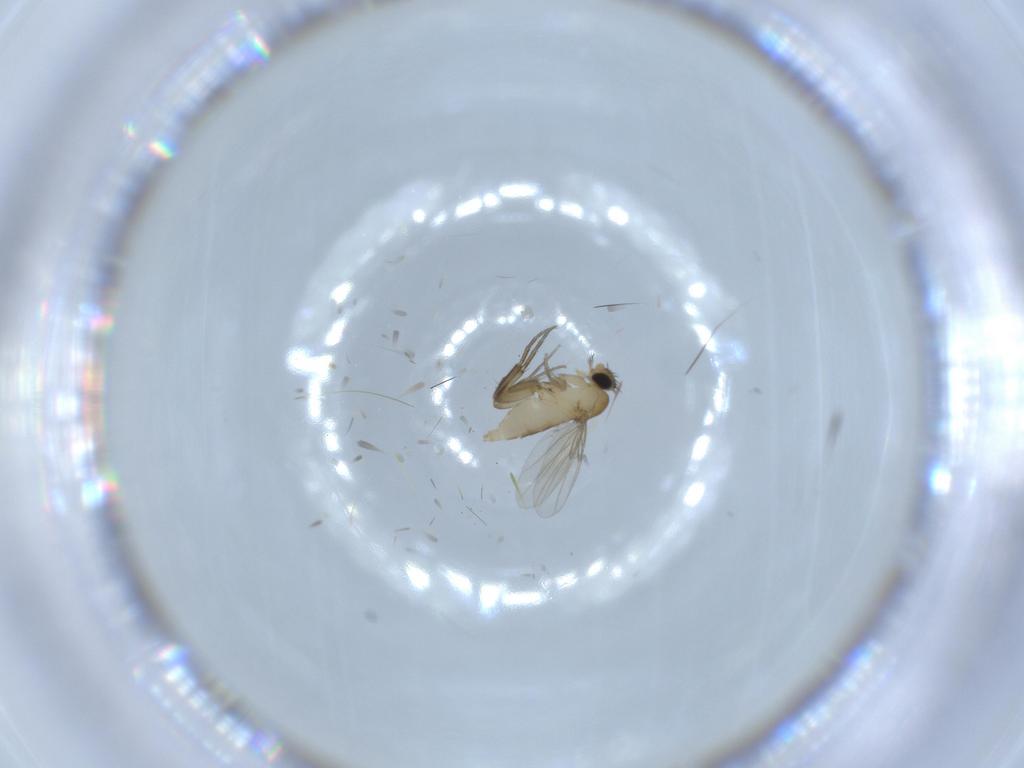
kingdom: Animalia
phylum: Arthropoda
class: Insecta
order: Diptera
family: Phoridae
